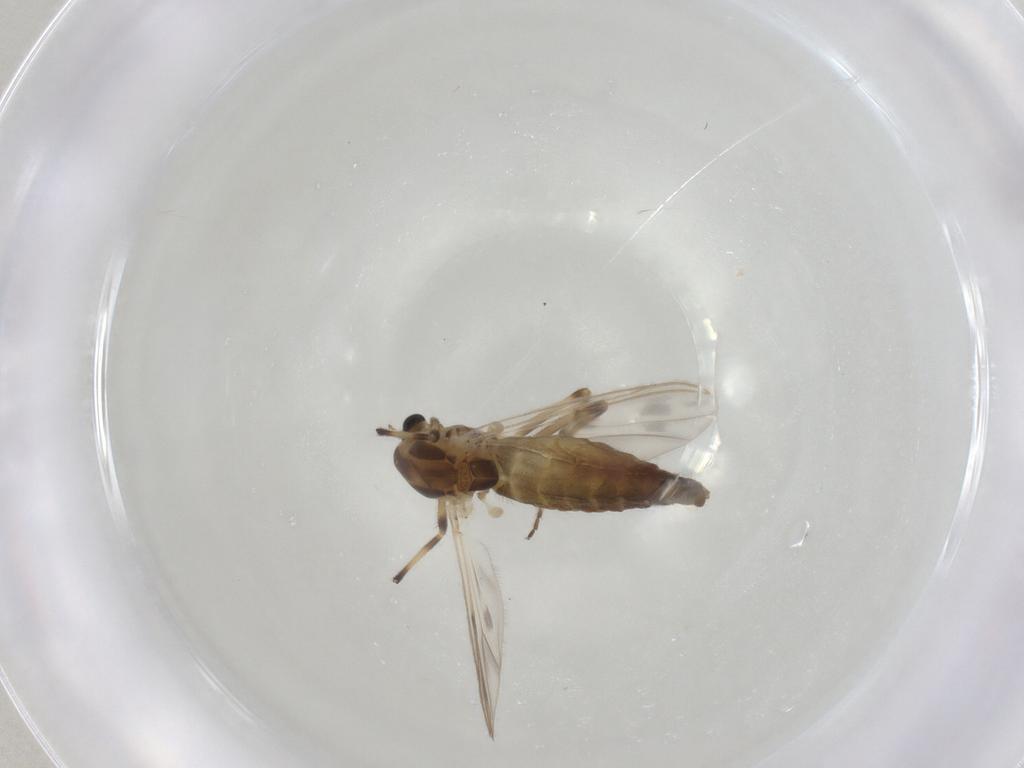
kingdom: Animalia
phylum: Arthropoda
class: Insecta
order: Diptera
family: Chironomidae
